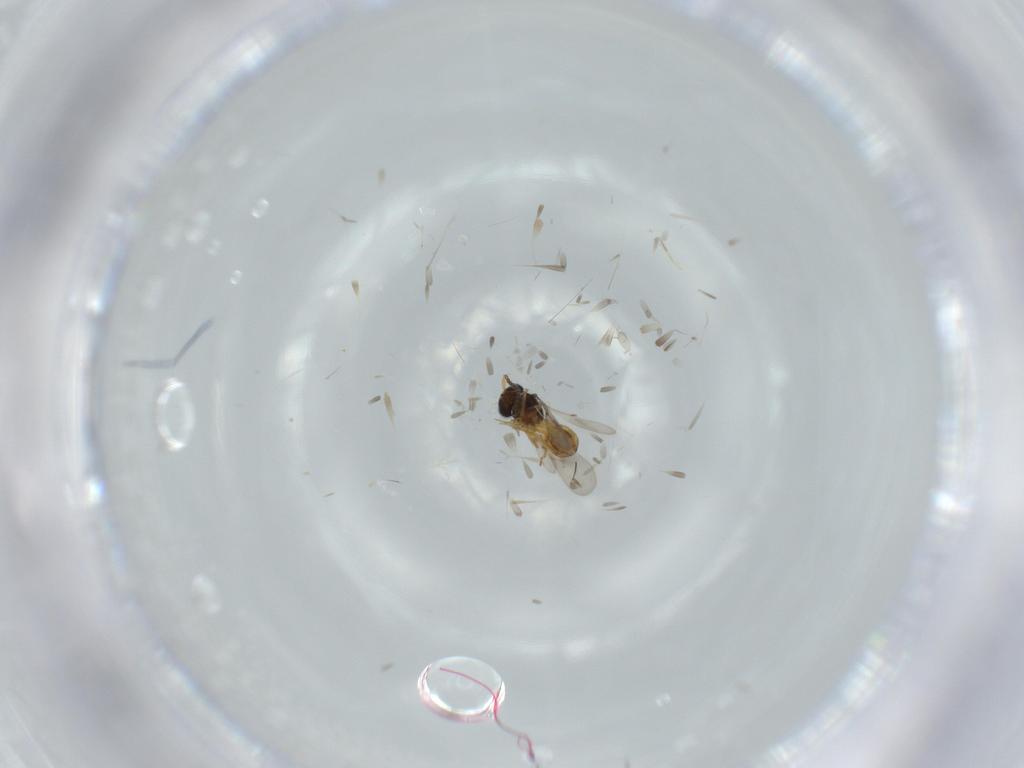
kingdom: Animalia
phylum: Arthropoda
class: Insecta
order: Hymenoptera
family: Scelionidae
